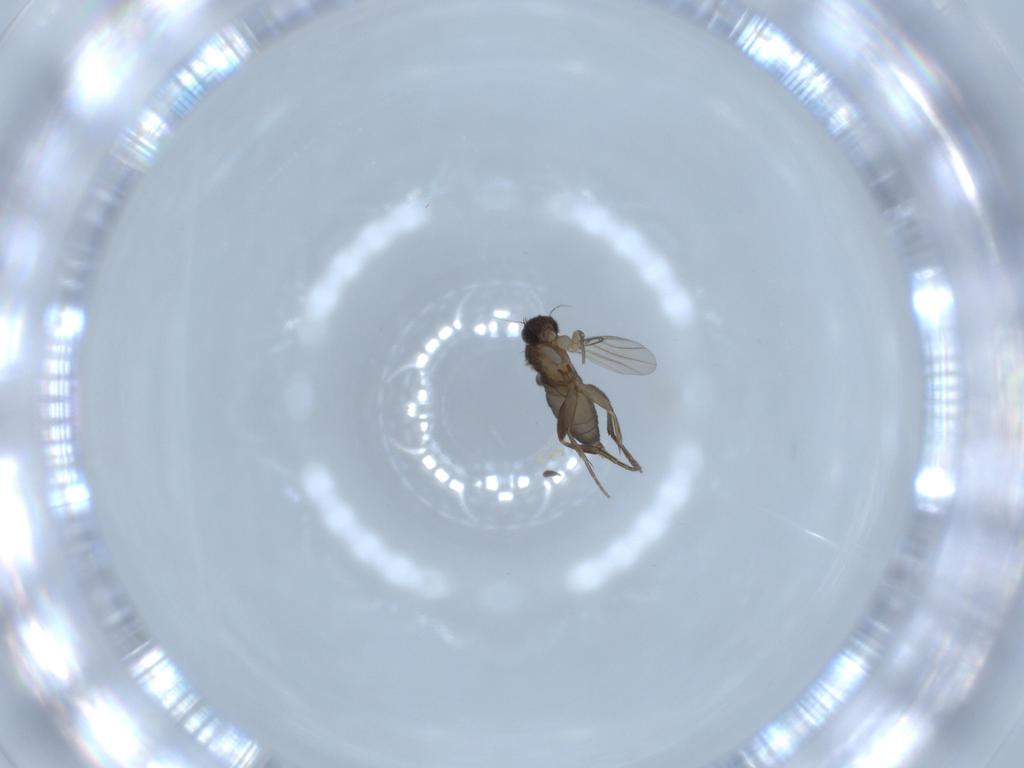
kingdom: Animalia
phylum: Arthropoda
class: Insecta
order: Diptera
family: Phoridae
